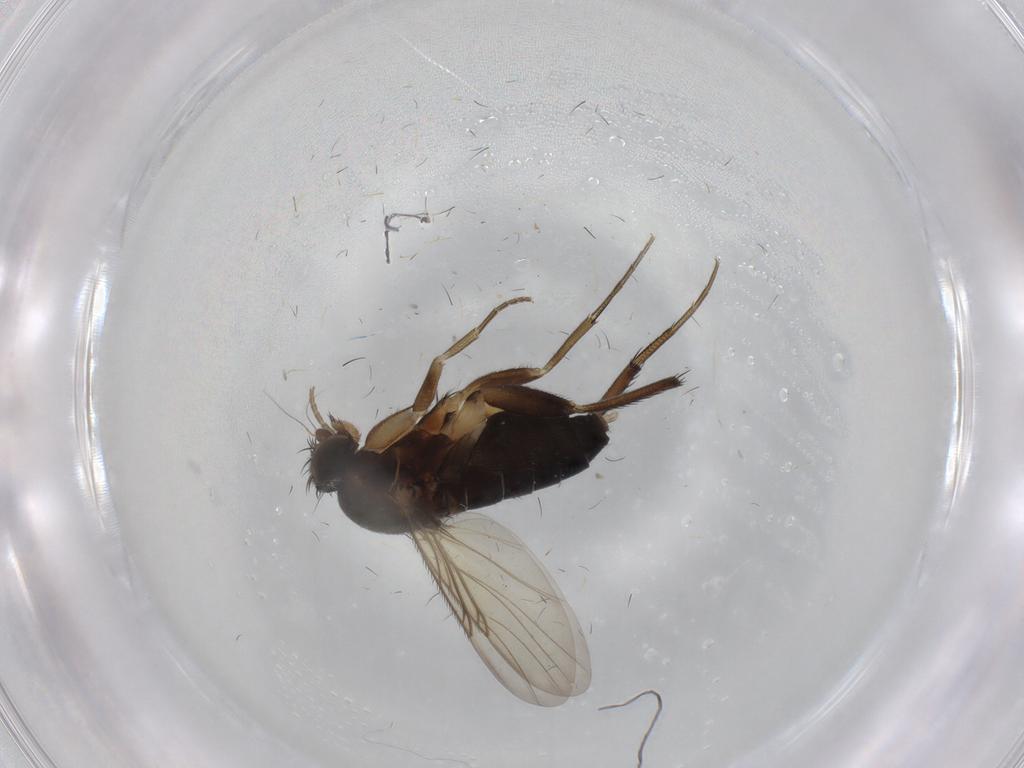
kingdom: Animalia
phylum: Arthropoda
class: Insecta
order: Diptera
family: Phoridae
